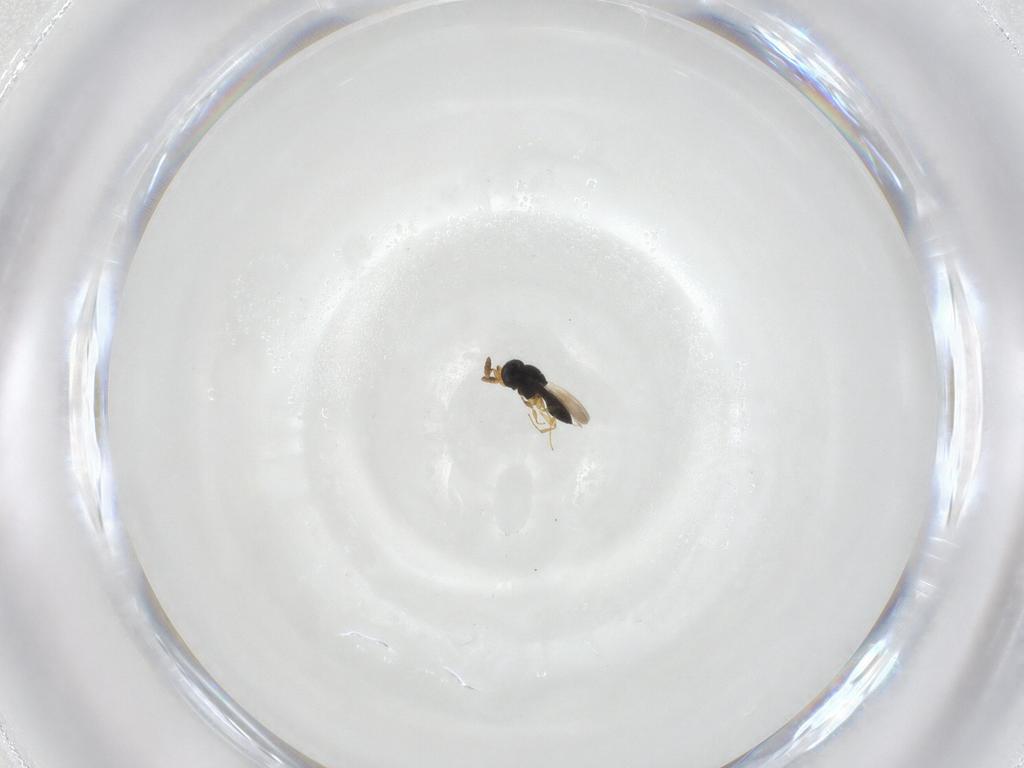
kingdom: Animalia
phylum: Arthropoda
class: Insecta
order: Hymenoptera
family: Scelionidae
